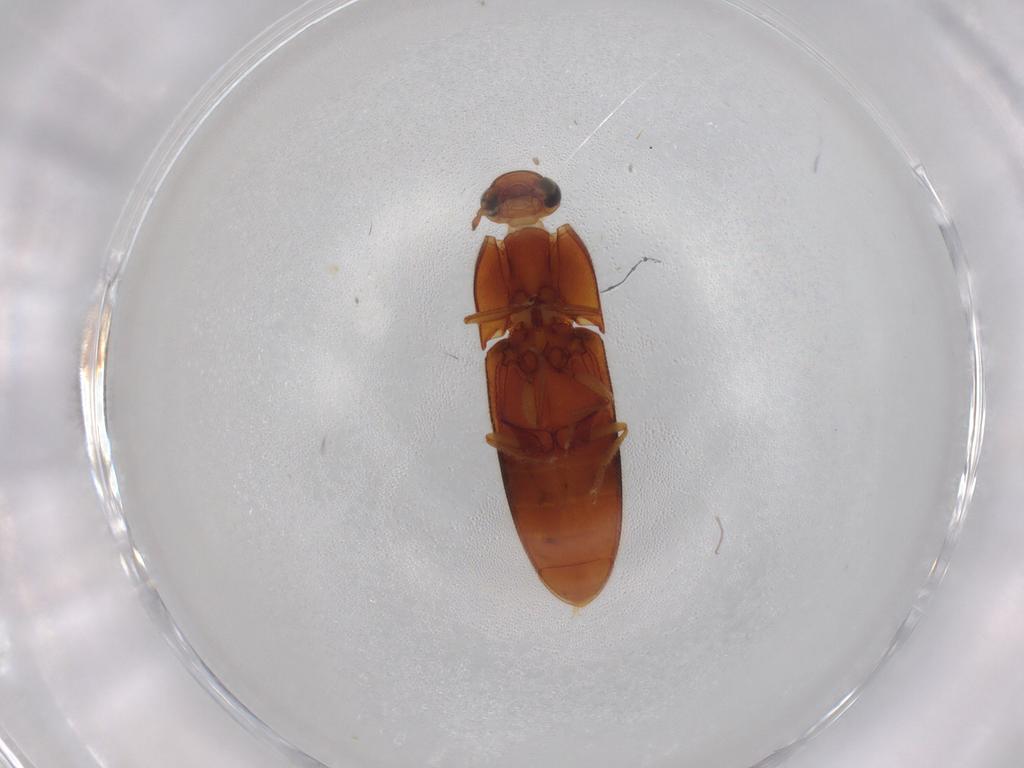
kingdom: Animalia
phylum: Arthropoda
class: Insecta
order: Coleoptera
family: Elateridae
